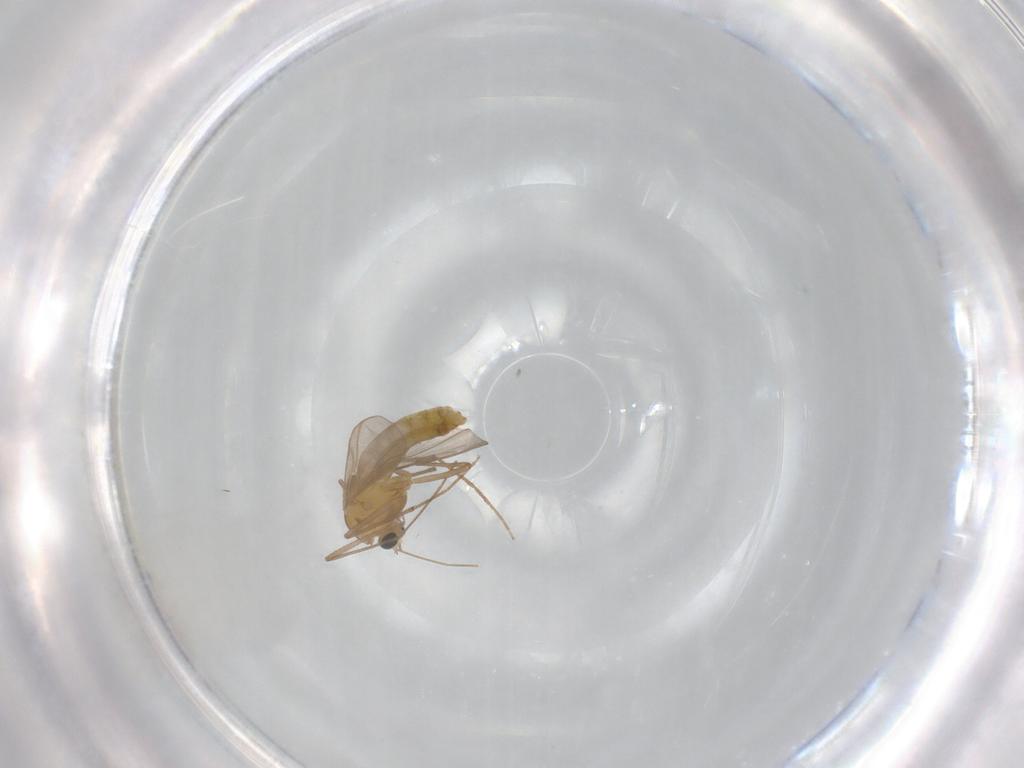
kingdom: Animalia
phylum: Arthropoda
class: Insecta
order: Diptera
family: Chironomidae
